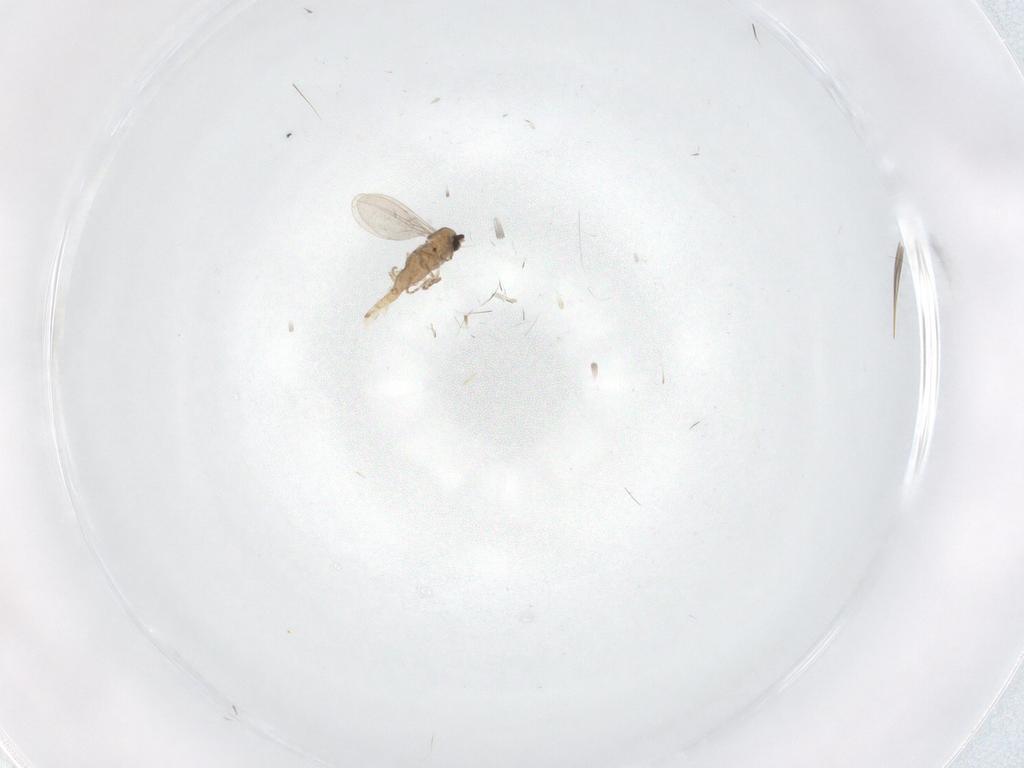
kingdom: Animalia
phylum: Arthropoda
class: Insecta
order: Diptera
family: Cecidomyiidae
